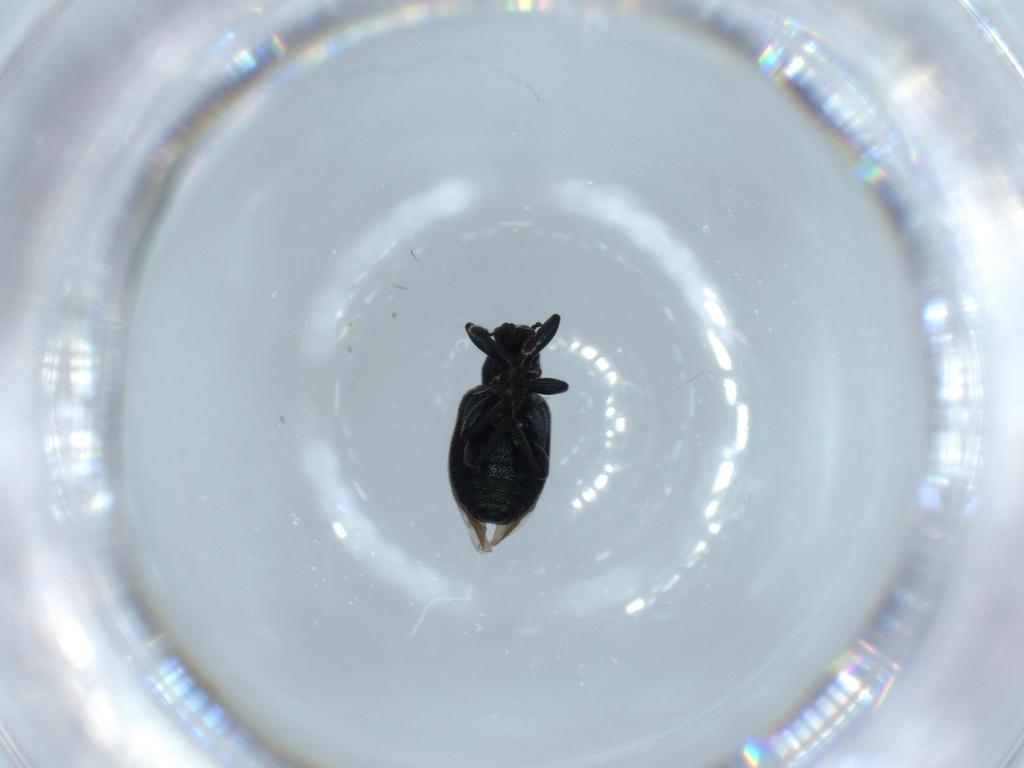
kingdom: Animalia
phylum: Arthropoda
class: Insecta
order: Coleoptera
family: Attelabidae
